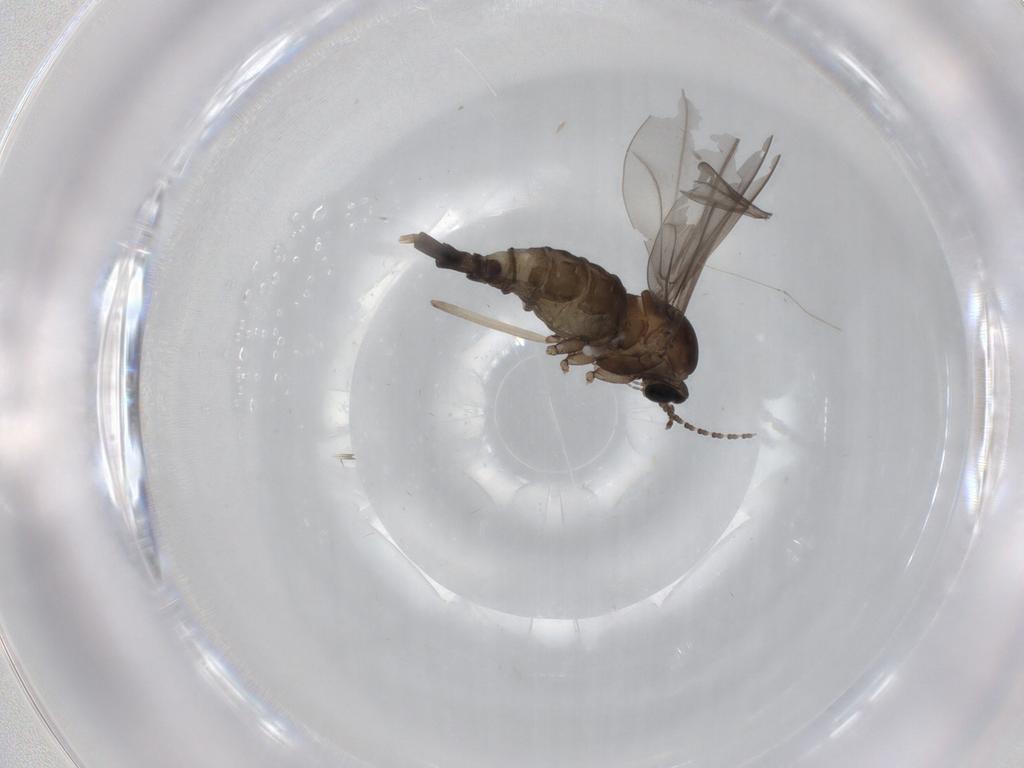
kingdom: Animalia
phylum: Arthropoda
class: Insecta
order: Diptera
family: Cecidomyiidae
